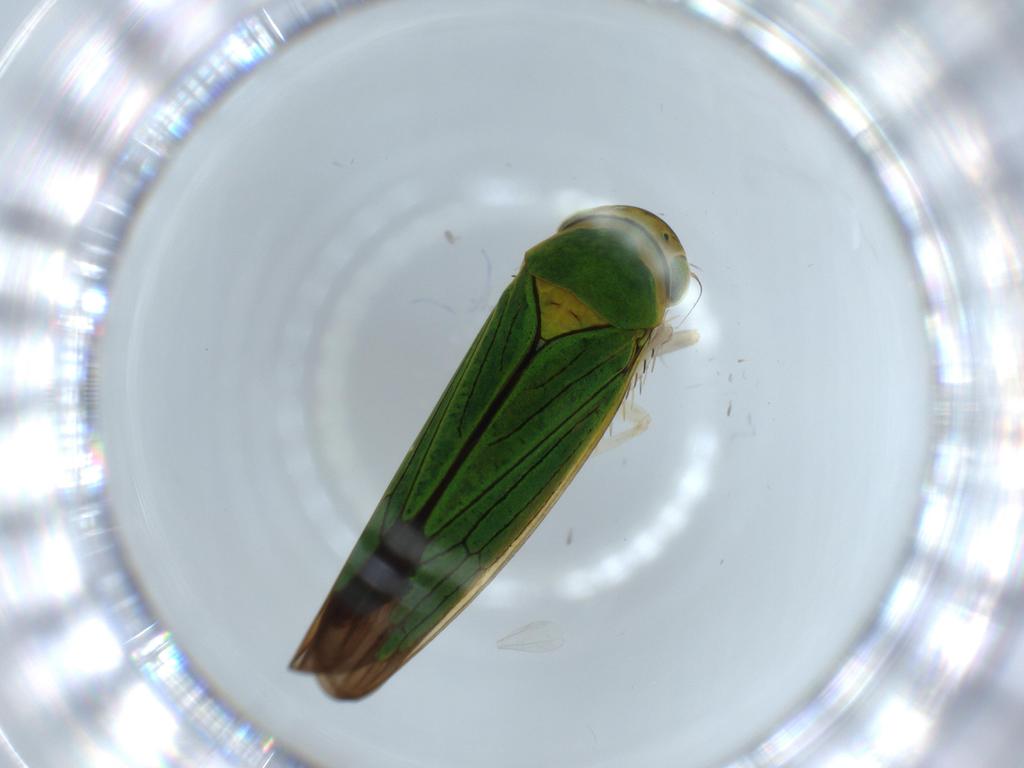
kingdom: Animalia
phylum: Arthropoda
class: Insecta
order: Hemiptera
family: Cicadellidae
